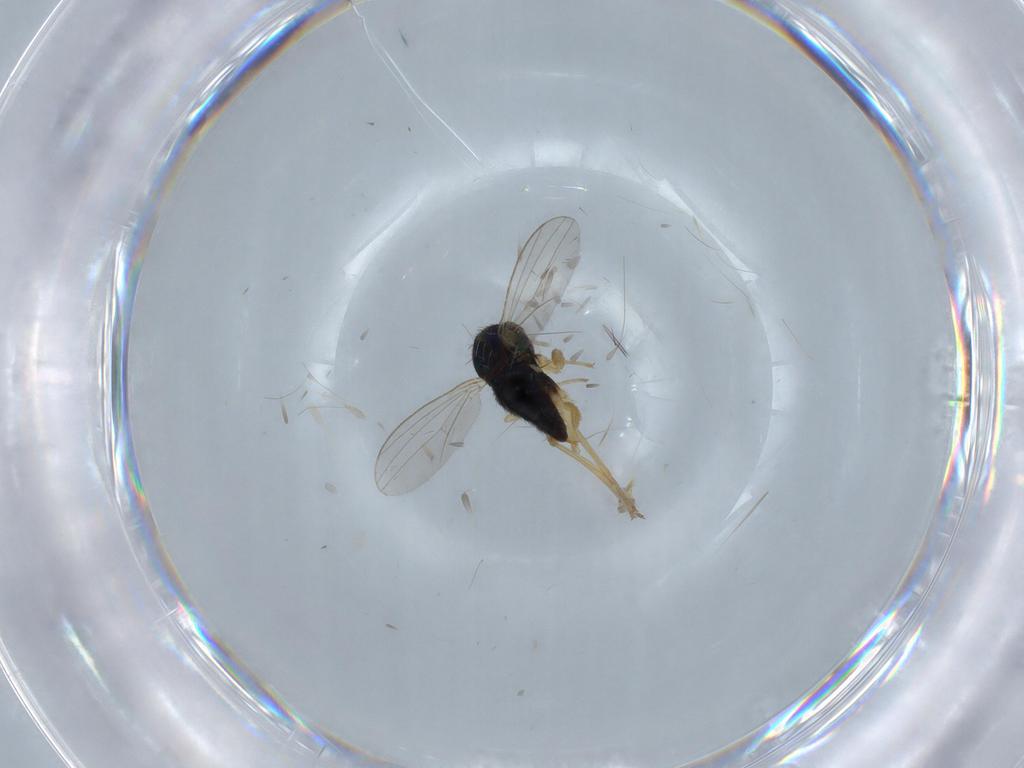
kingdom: Animalia
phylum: Arthropoda
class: Insecta
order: Diptera
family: Dolichopodidae
